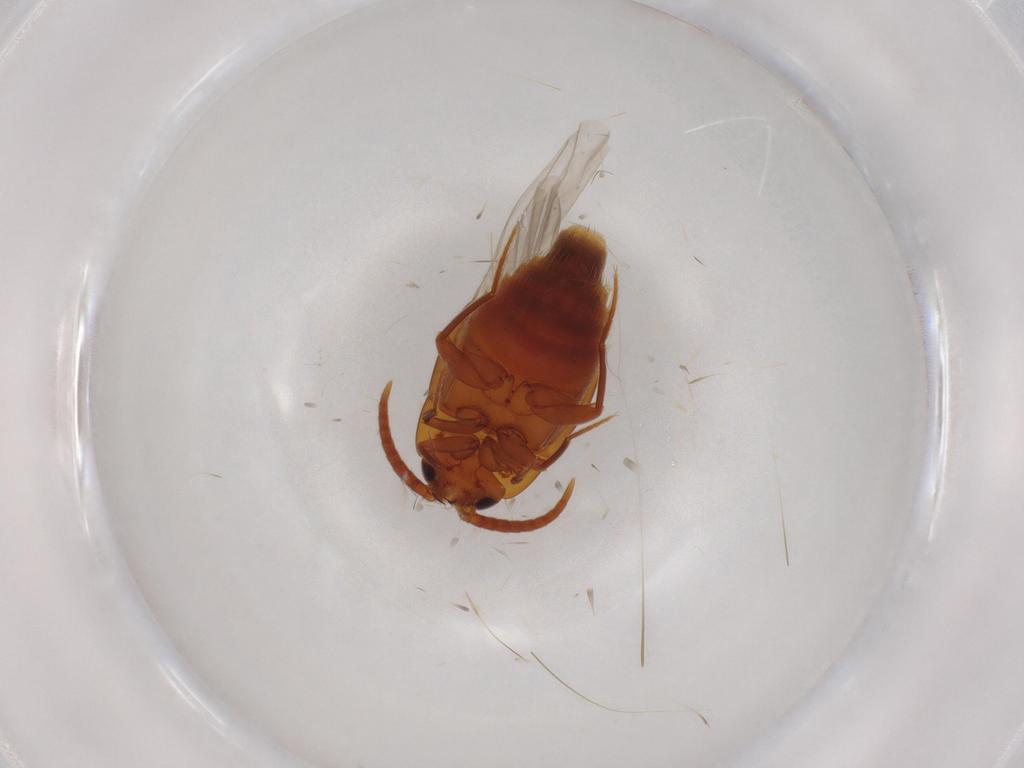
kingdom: Animalia
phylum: Arthropoda
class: Insecta
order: Coleoptera
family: Staphylinidae
